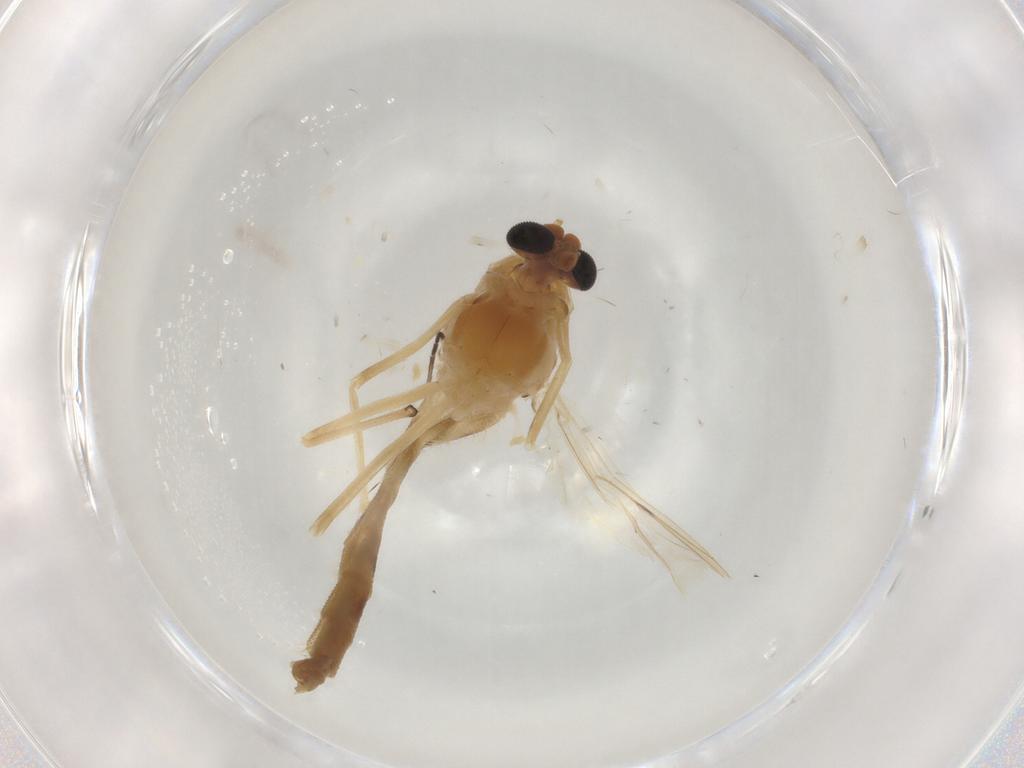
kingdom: Animalia
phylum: Arthropoda
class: Insecta
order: Diptera
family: Sciaridae
